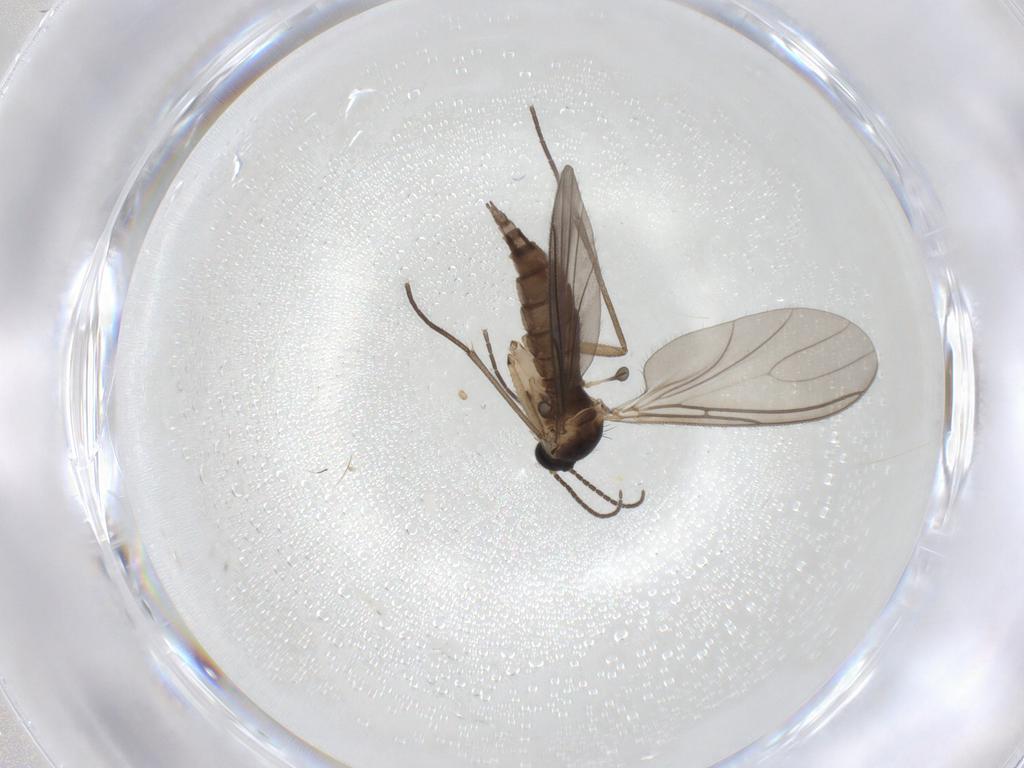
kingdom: Animalia
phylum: Arthropoda
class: Insecta
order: Diptera
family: Sciaridae
